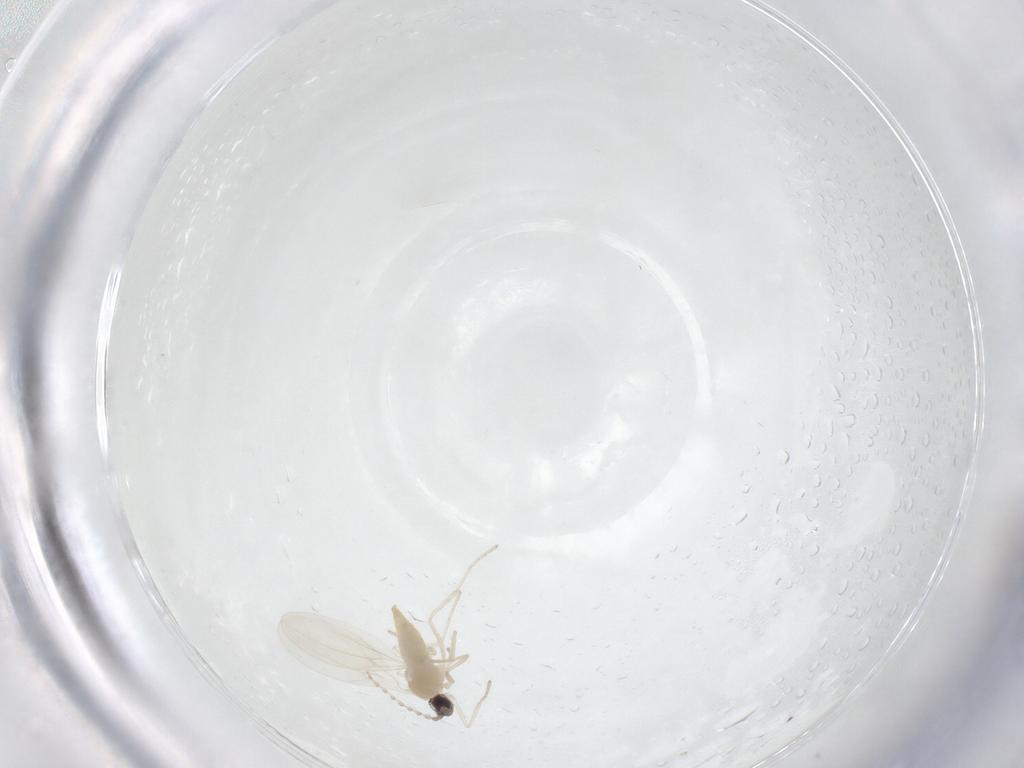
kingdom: Animalia
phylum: Arthropoda
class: Insecta
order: Diptera
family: Cecidomyiidae
